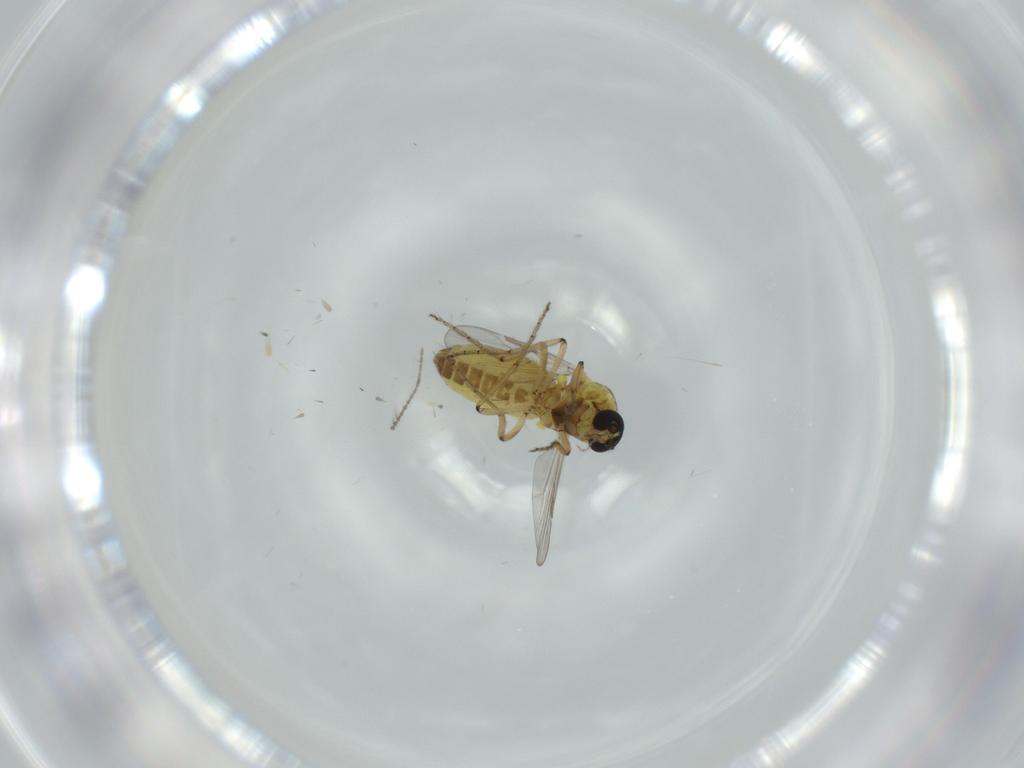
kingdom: Animalia
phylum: Arthropoda
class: Insecta
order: Diptera
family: Ceratopogonidae
